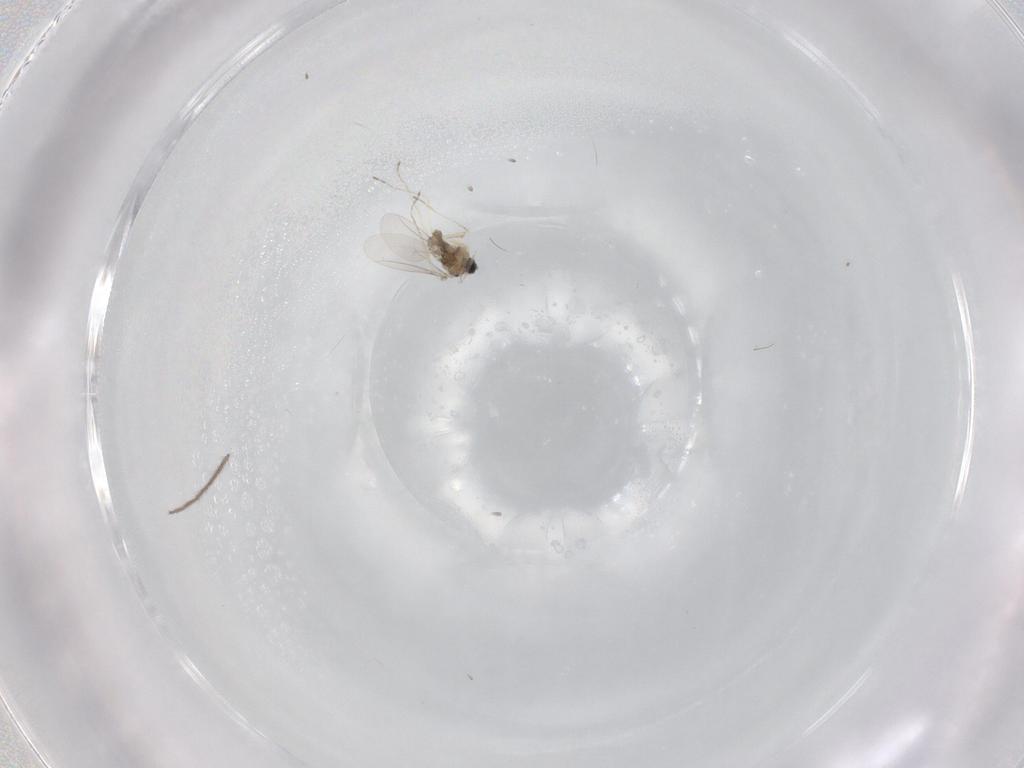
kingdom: Animalia
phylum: Arthropoda
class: Insecta
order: Diptera
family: Cecidomyiidae
